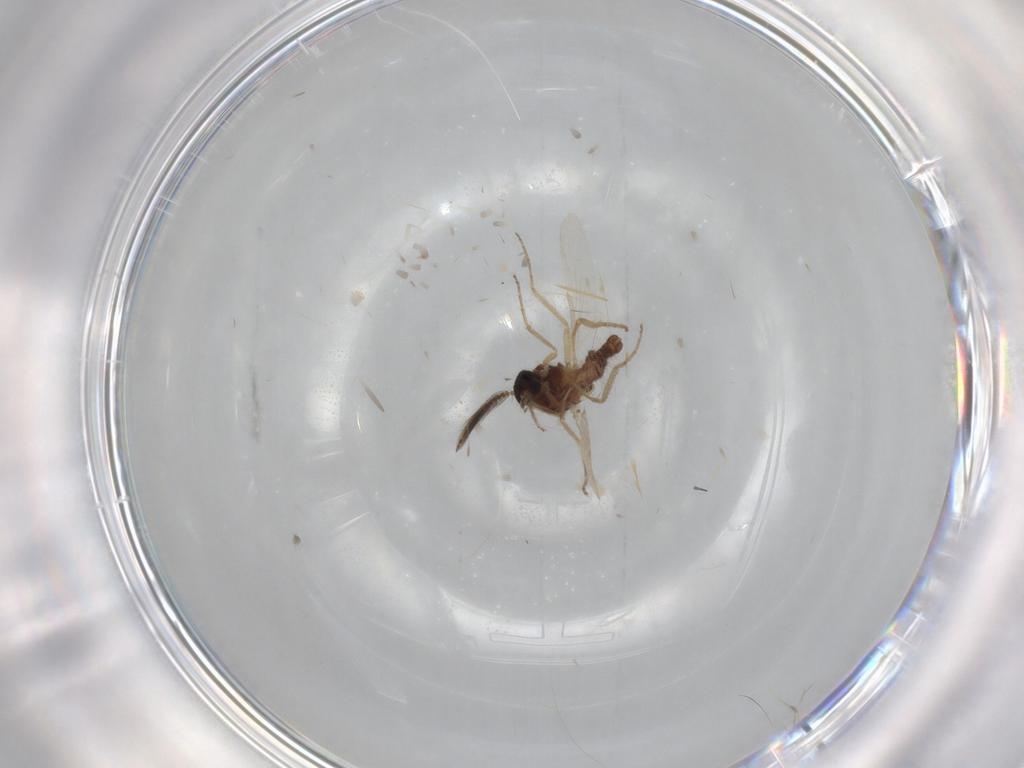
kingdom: Animalia
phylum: Arthropoda
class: Insecta
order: Diptera
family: Ceratopogonidae
